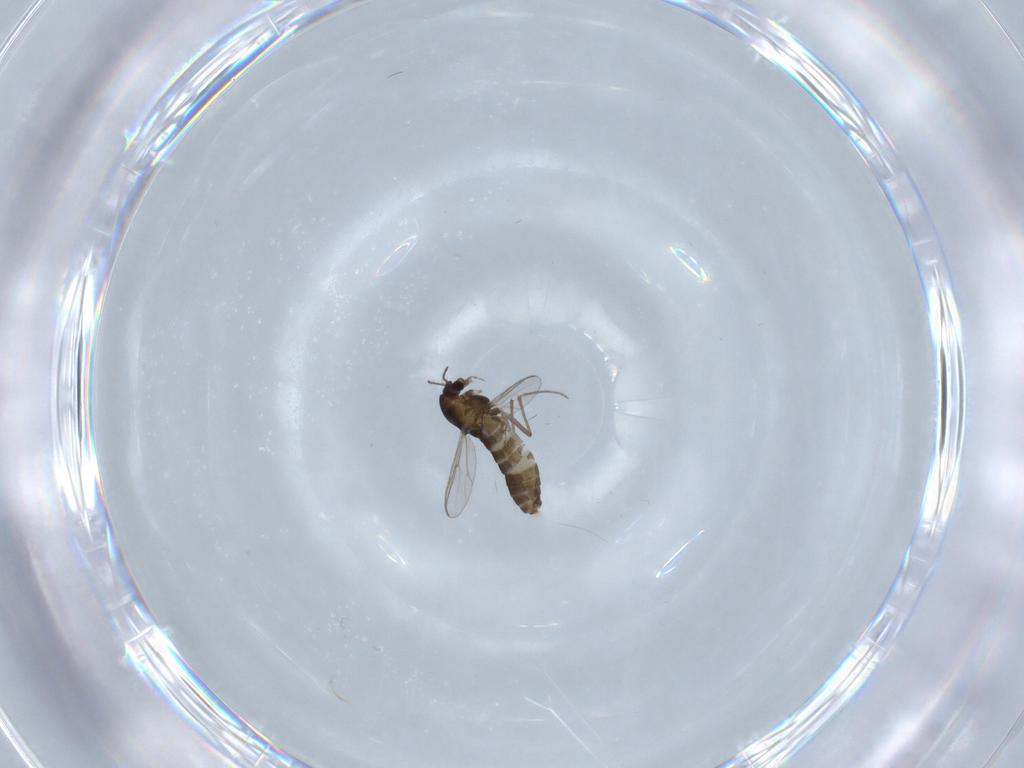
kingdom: Animalia
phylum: Arthropoda
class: Insecta
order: Diptera
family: Chironomidae
